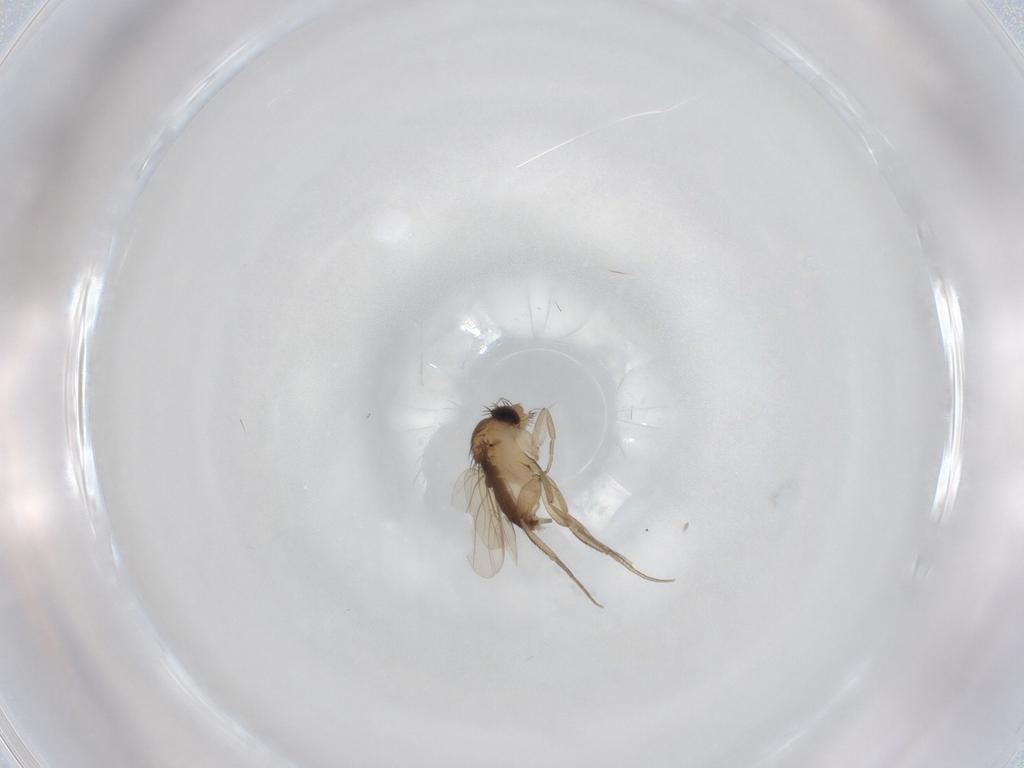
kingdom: Animalia
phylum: Arthropoda
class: Insecta
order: Diptera
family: Phoridae
